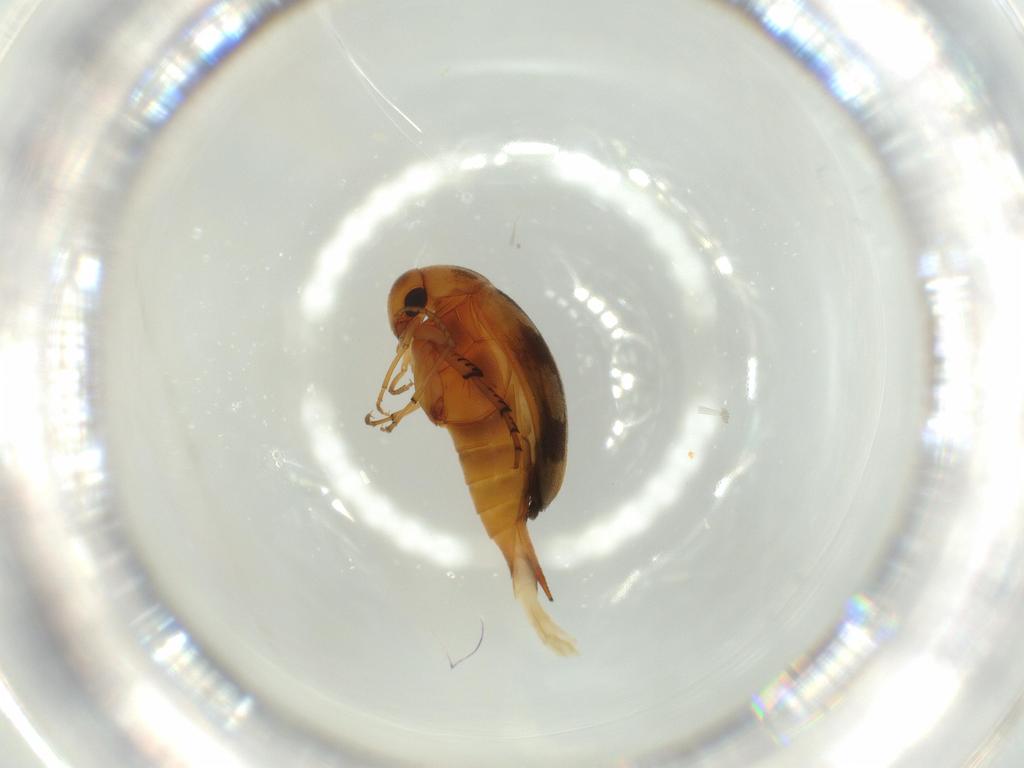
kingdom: Animalia
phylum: Arthropoda
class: Insecta
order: Coleoptera
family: Mordellidae
